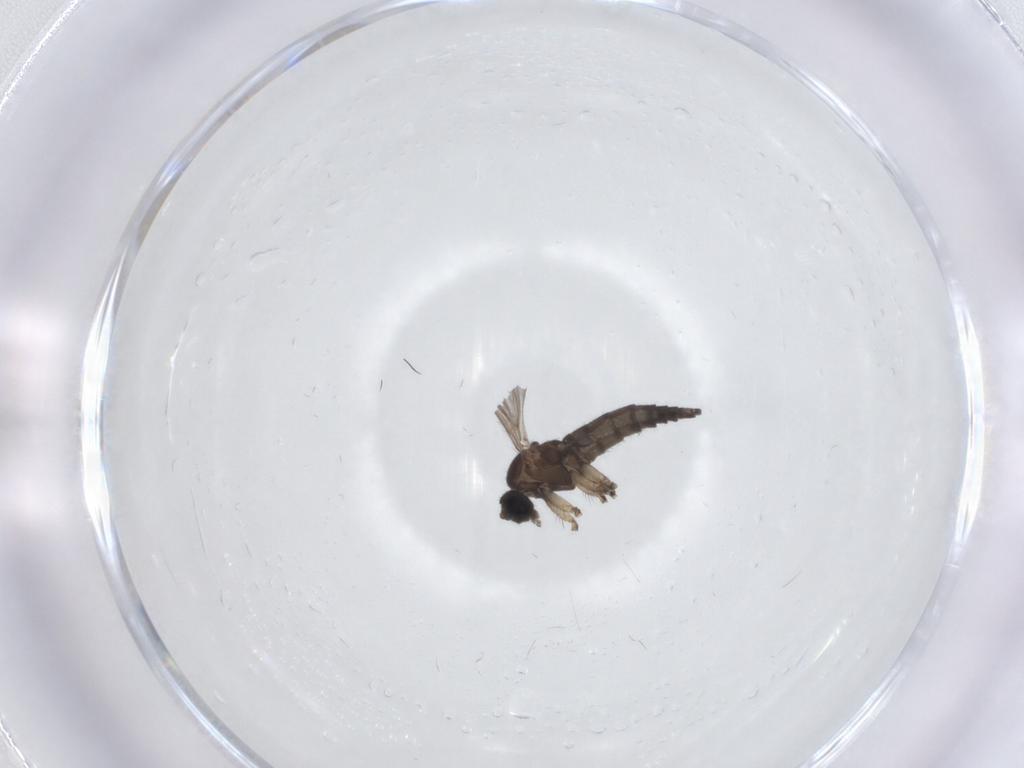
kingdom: Animalia
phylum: Arthropoda
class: Insecta
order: Diptera
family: Sciaridae
